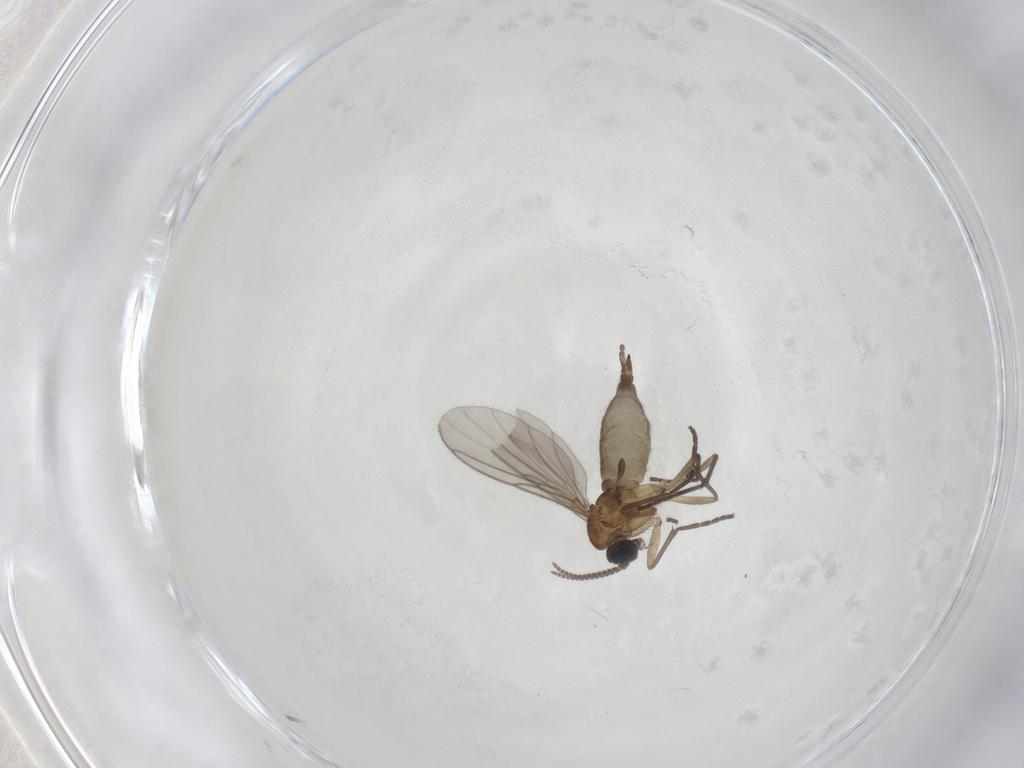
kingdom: Animalia
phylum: Arthropoda
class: Insecta
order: Diptera
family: Sciaridae
